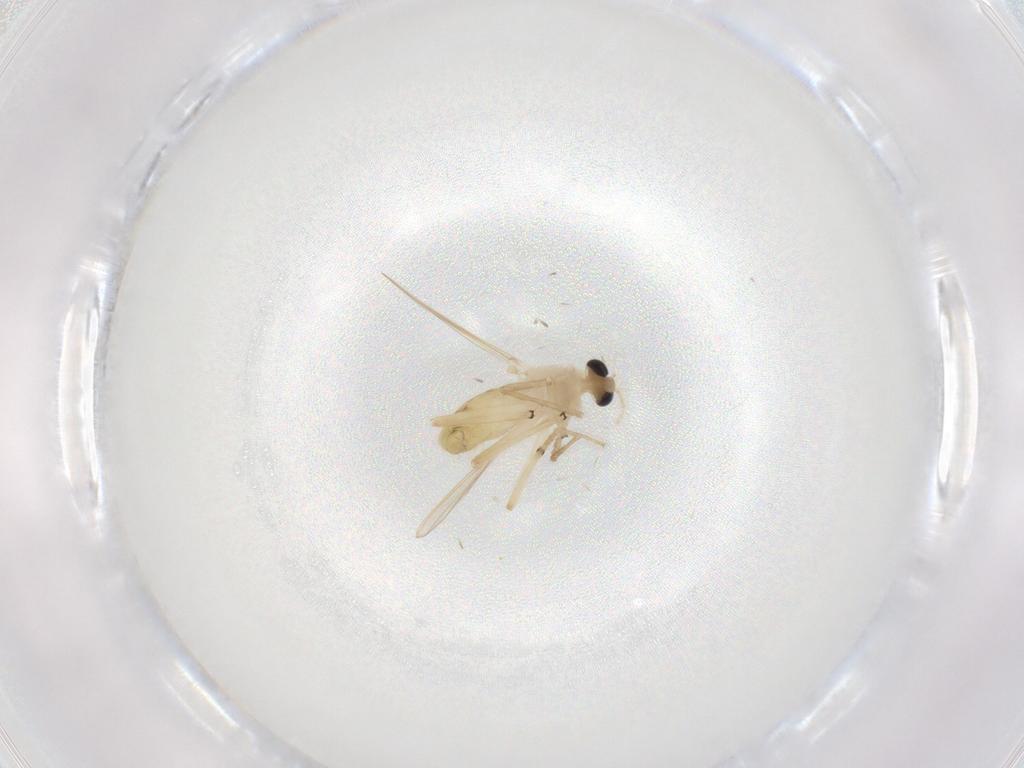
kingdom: Animalia
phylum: Arthropoda
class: Insecta
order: Diptera
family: Chironomidae
